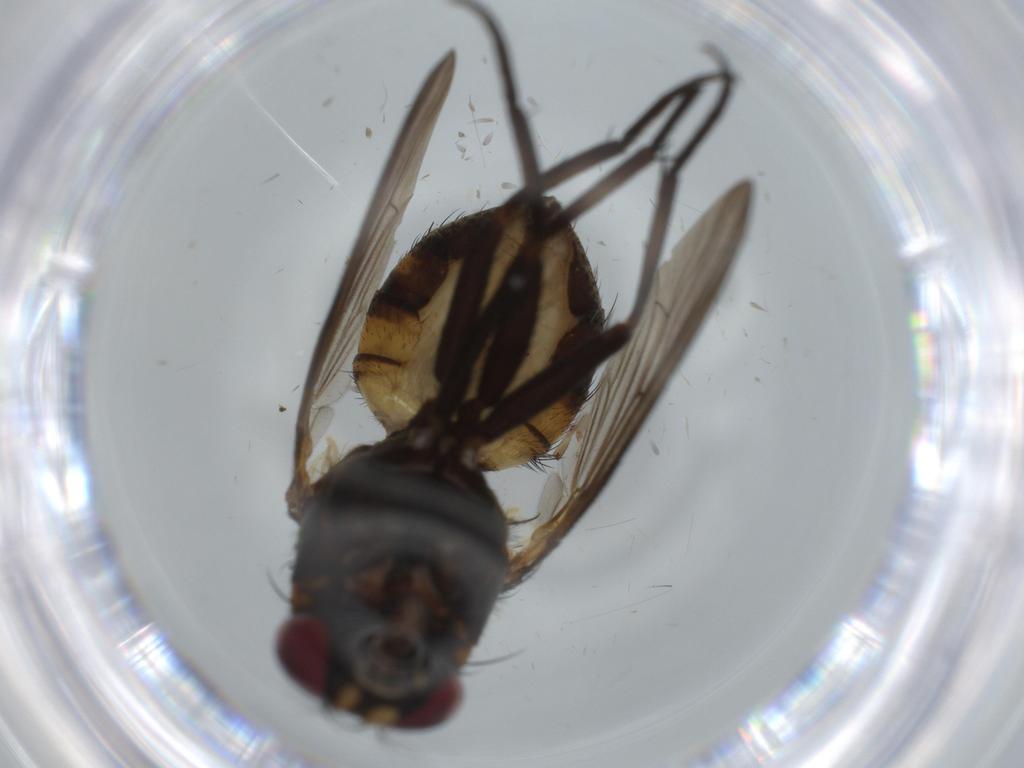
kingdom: Animalia
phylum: Arthropoda
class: Insecta
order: Diptera
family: Muscidae
